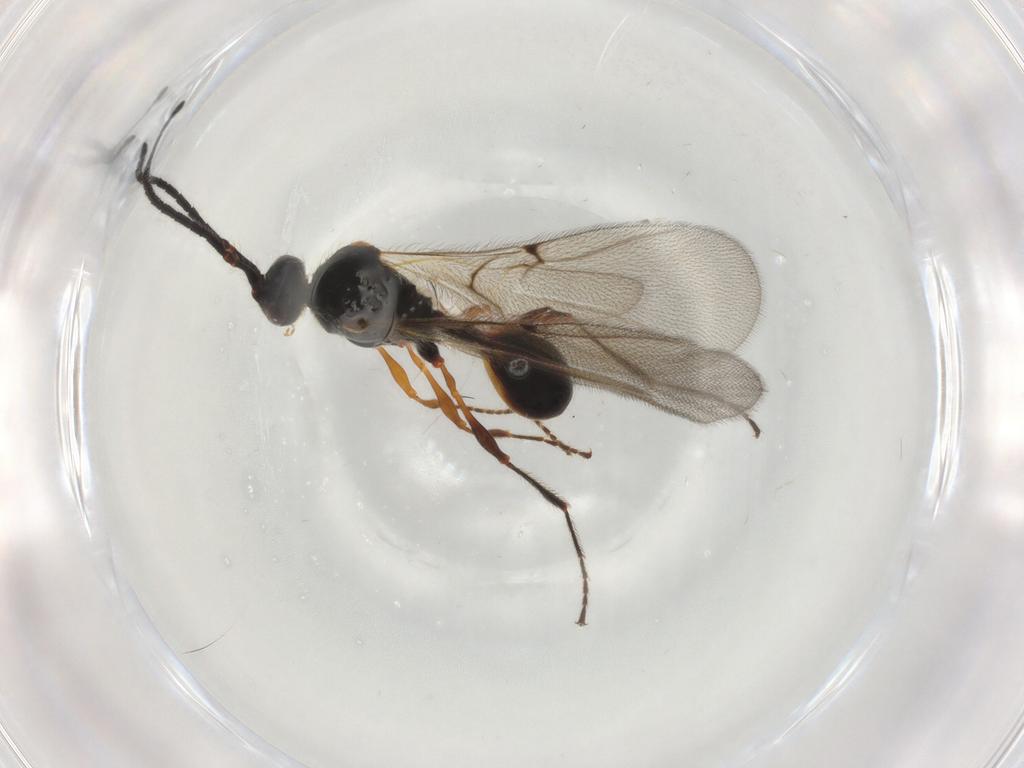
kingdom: Animalia
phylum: Arthropoda
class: Insecta
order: Hymenoptera
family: Diapriidae
